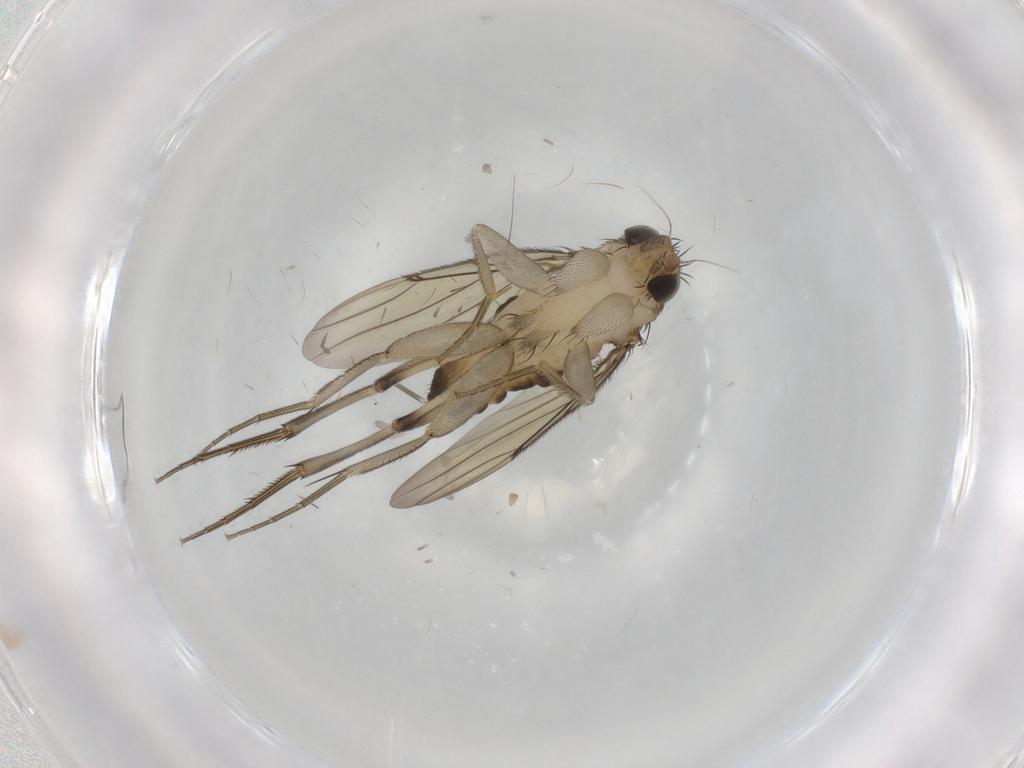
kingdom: Animalia
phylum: Arthropoda
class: Insecta
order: Diptera
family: Phoridae
